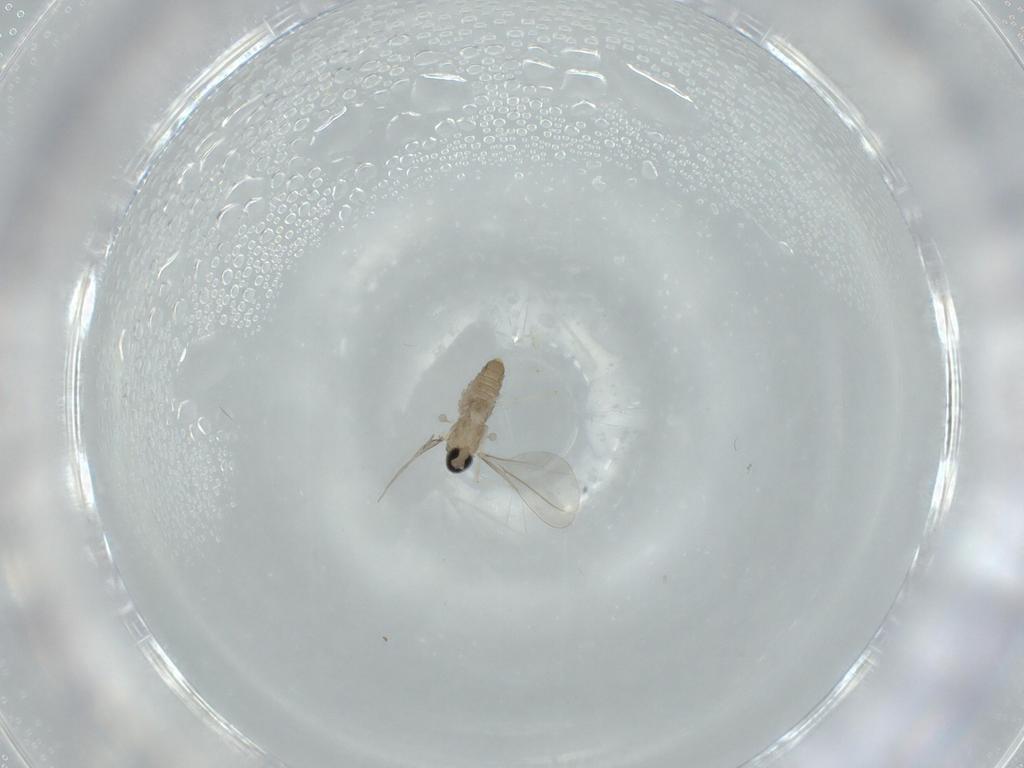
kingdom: Animalia
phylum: Arthropoda
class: Insecta
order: Diptera
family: Cecidomyiidae
